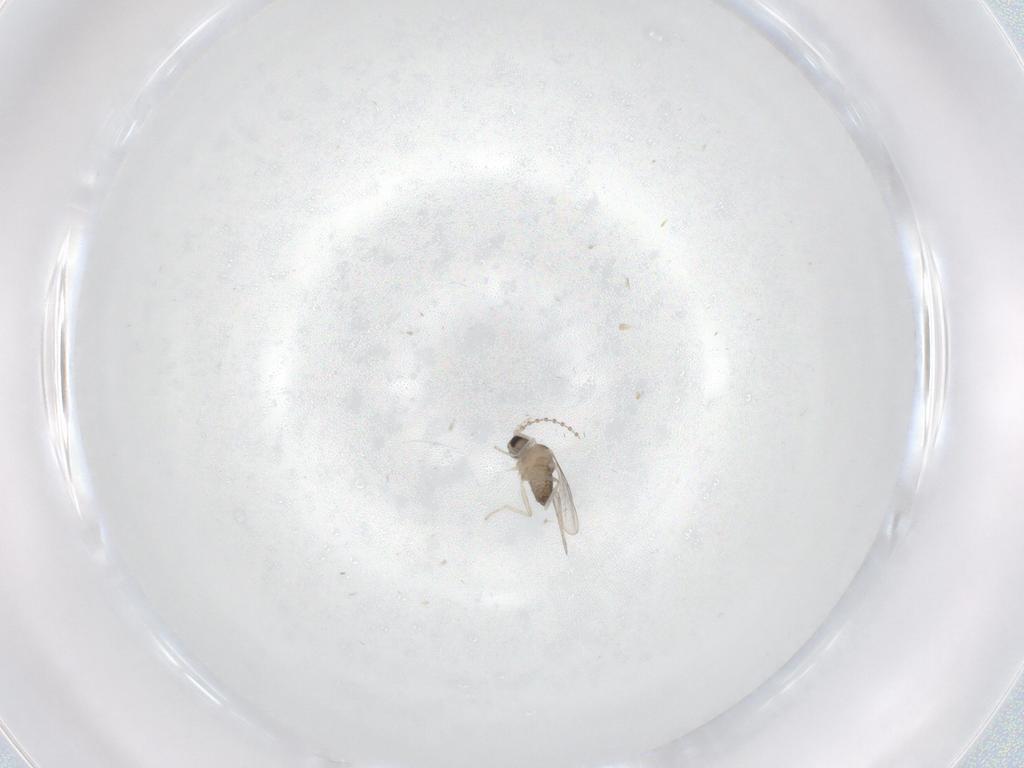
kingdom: Animalia
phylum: Arthropoda
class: Insecta
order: Diptera
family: Cecidomyiidae
